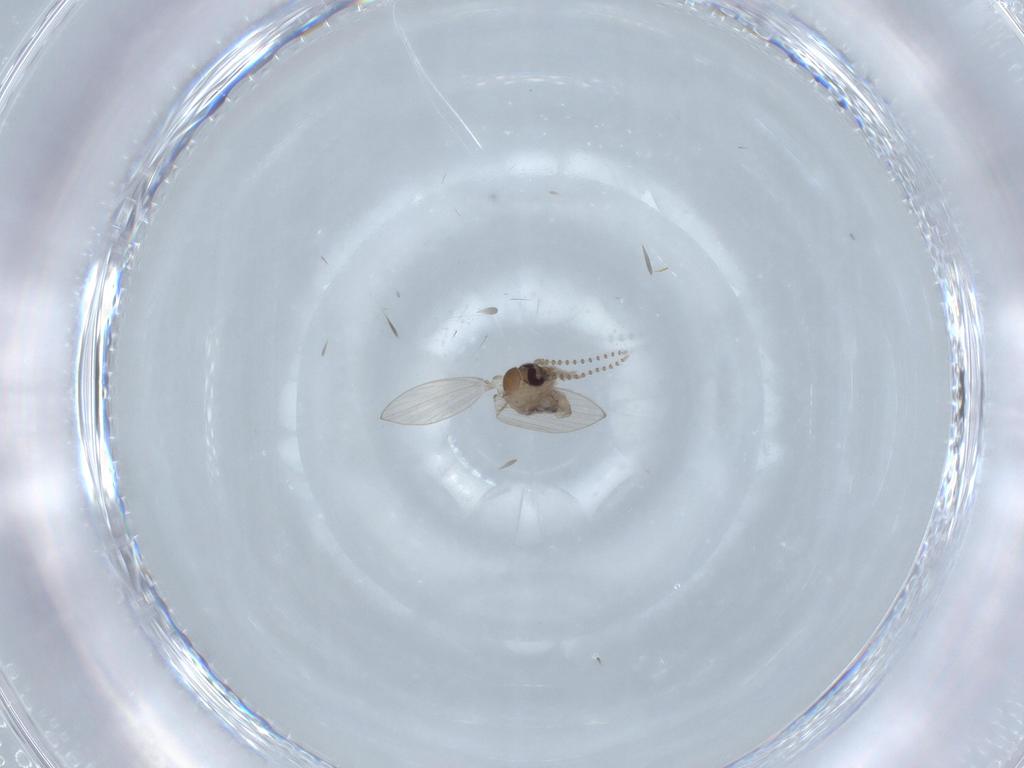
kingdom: Animalia
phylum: Arthropoda
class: Insecta
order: Diptera
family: Psychodidae
